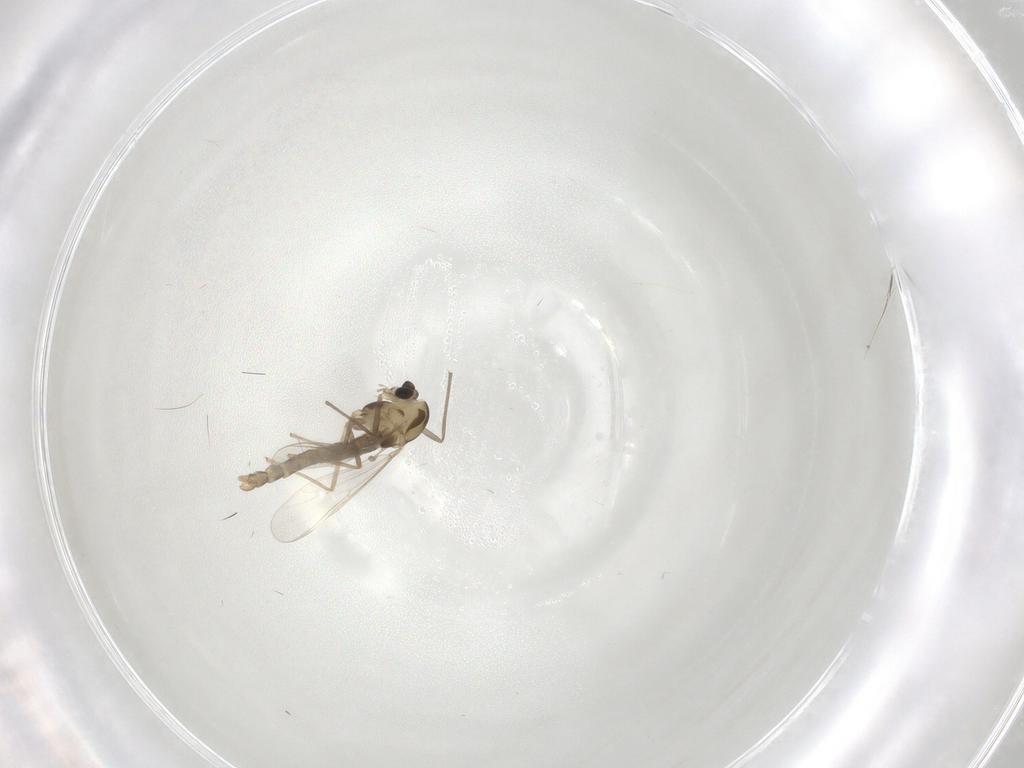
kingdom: Animalia
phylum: Arthropoda
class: Insecta
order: Diptera
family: Chironomidae
